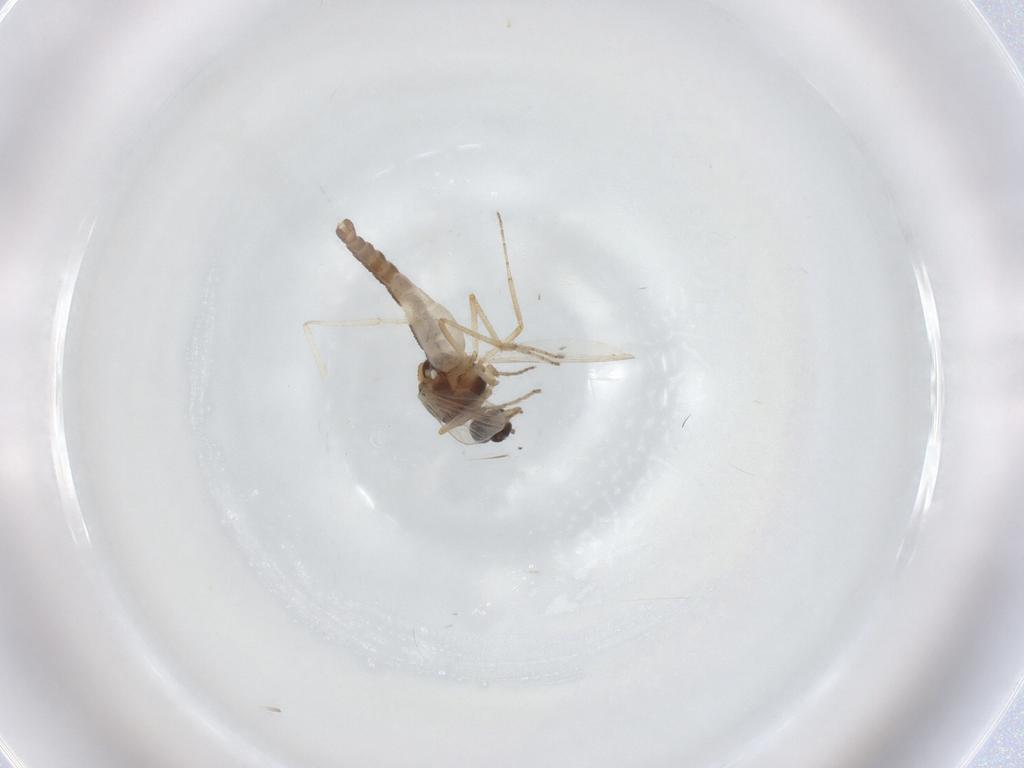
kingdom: Animalia
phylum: Arthropoda
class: Insecta
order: Diptera
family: Ceratopogonidae
